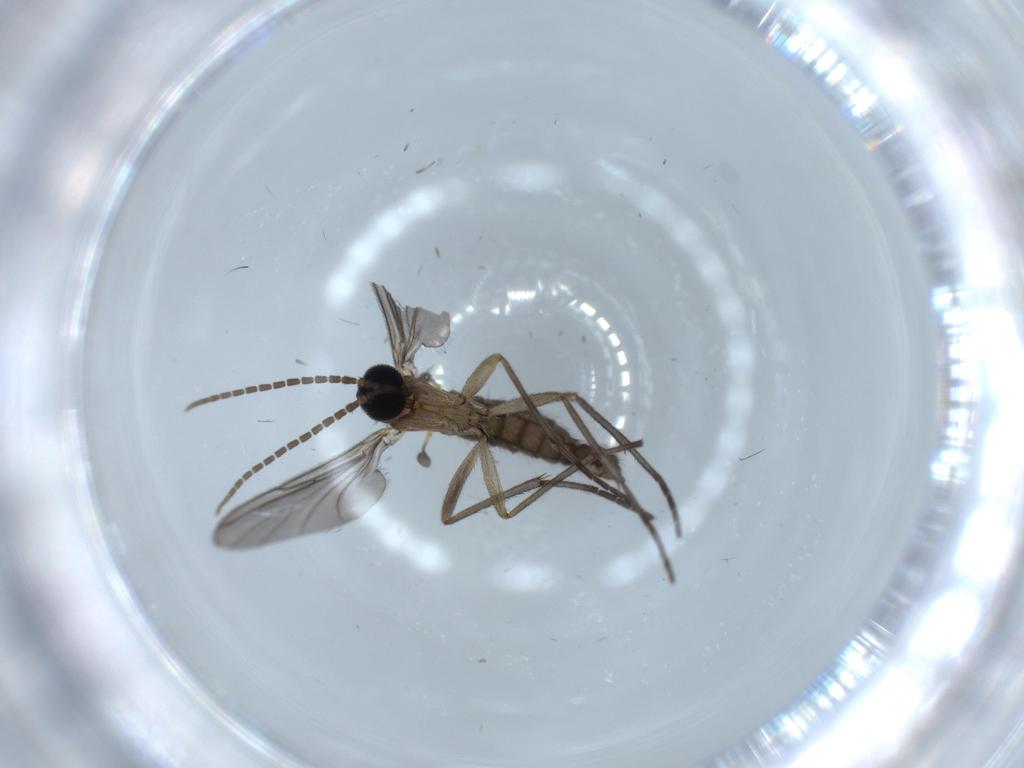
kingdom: Animalia
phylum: Arthropoda
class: Insecta
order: Diptera
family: Sciaridae
